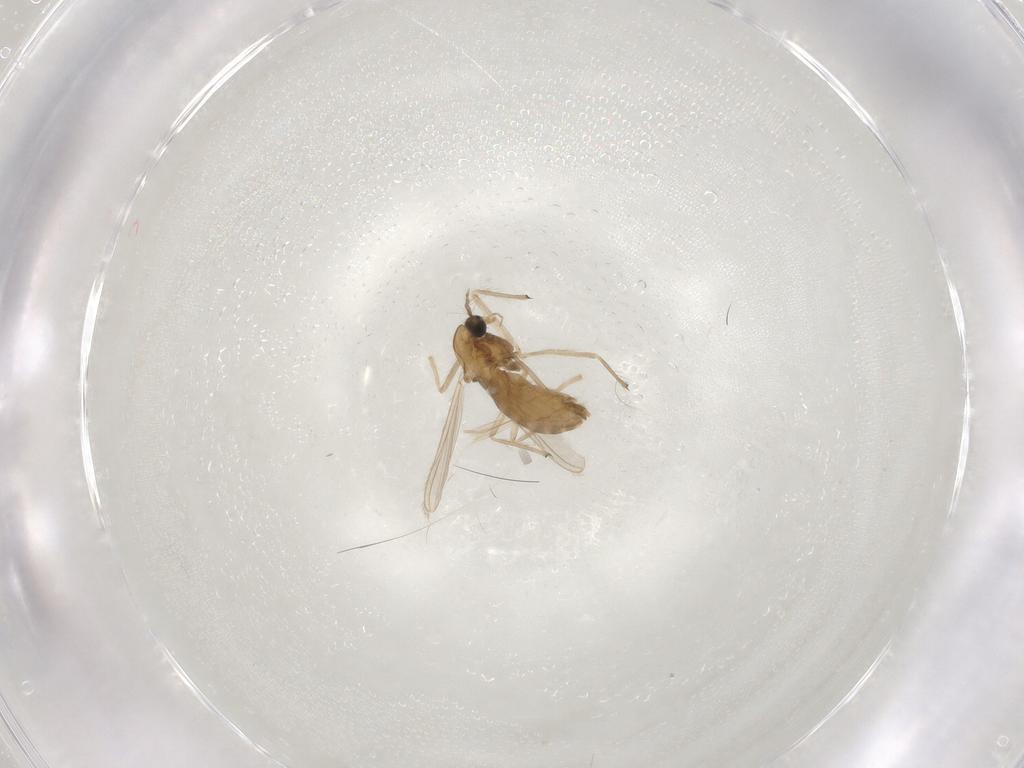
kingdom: Animalia
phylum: Arthropoda
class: Insecta
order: Diptera
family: Chironomidae
